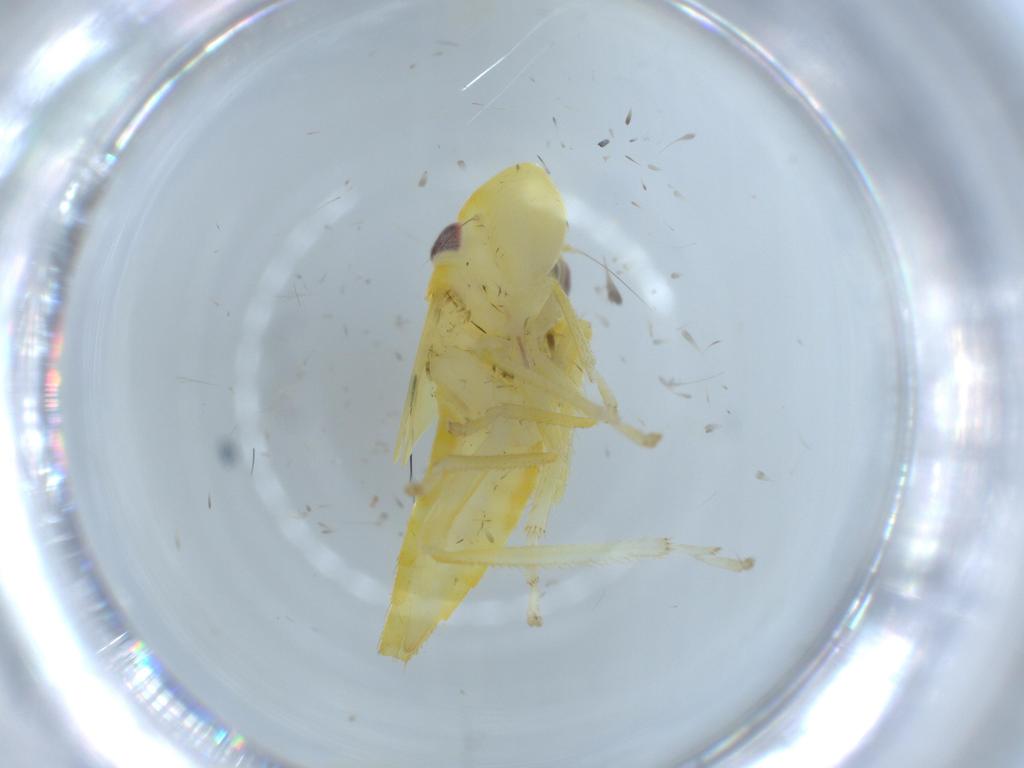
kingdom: Animalia
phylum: Arthropoda
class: Insecta
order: Hemiptera
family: Cicadellidae
